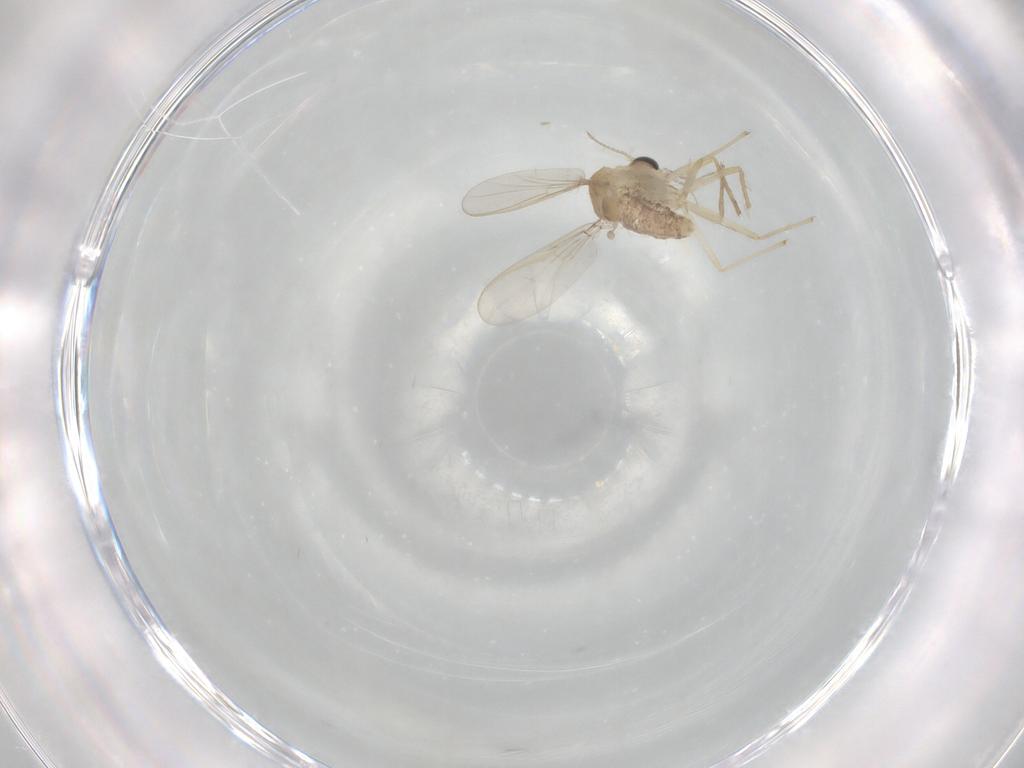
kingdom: Animalia
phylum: Arthropoda
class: Insecta
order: Diptera
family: Chironomidae
